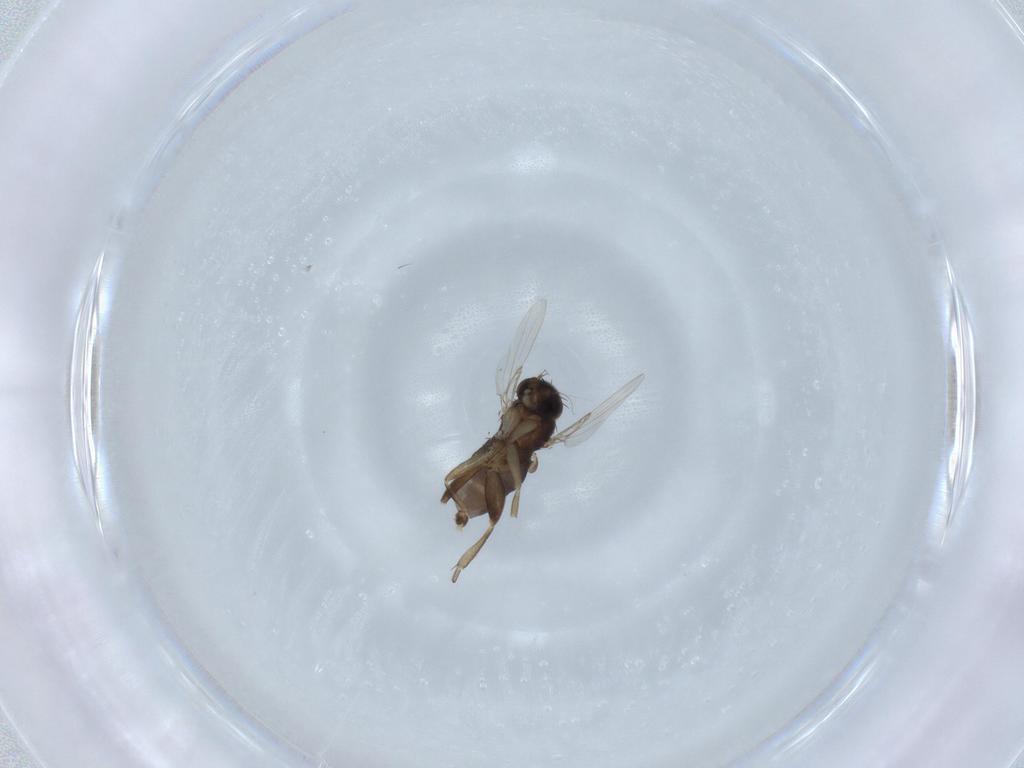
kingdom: Animalia
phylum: Arthropoda
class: Insecta
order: Diptera
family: Phoridae
